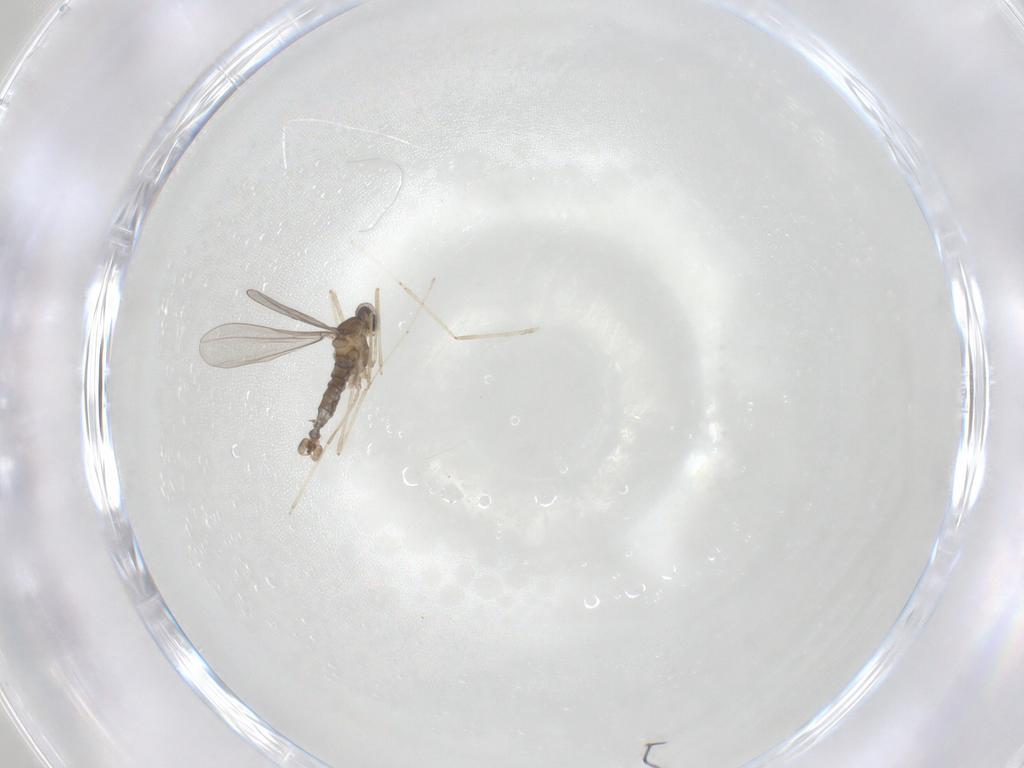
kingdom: Animalia
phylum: Arthropoda
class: Insecta
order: Diptera
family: Cecidomyiidae
